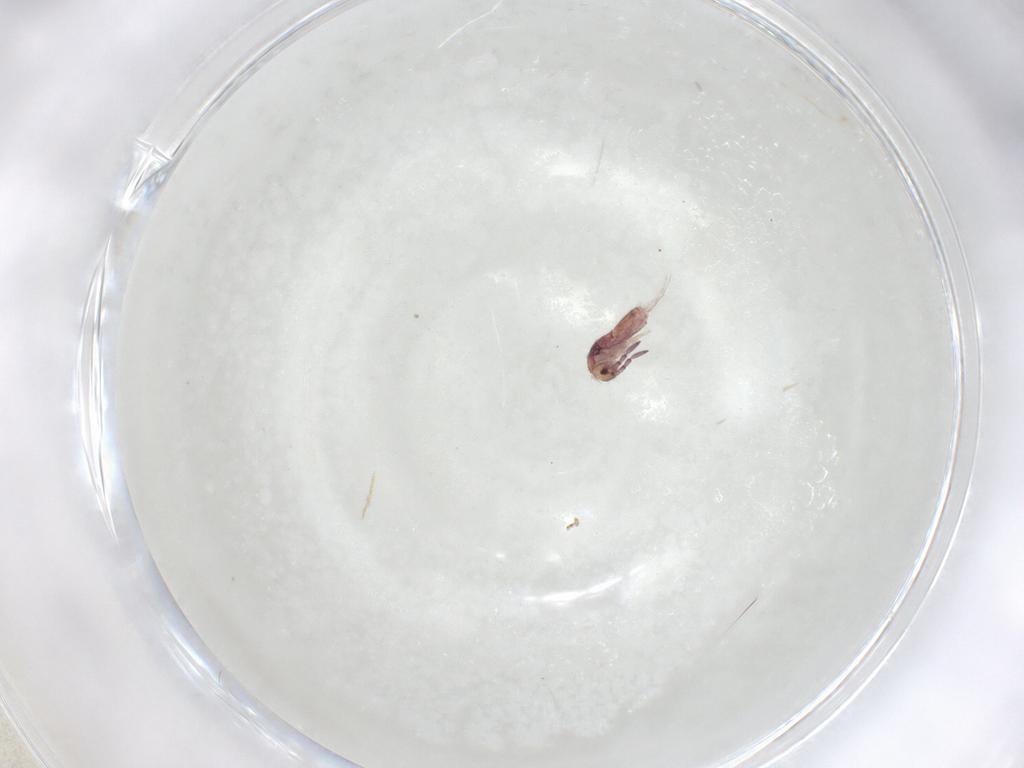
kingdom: Animalia
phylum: Arthropoda
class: Collembola
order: Entomobryomorpha
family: Entomobryidae
